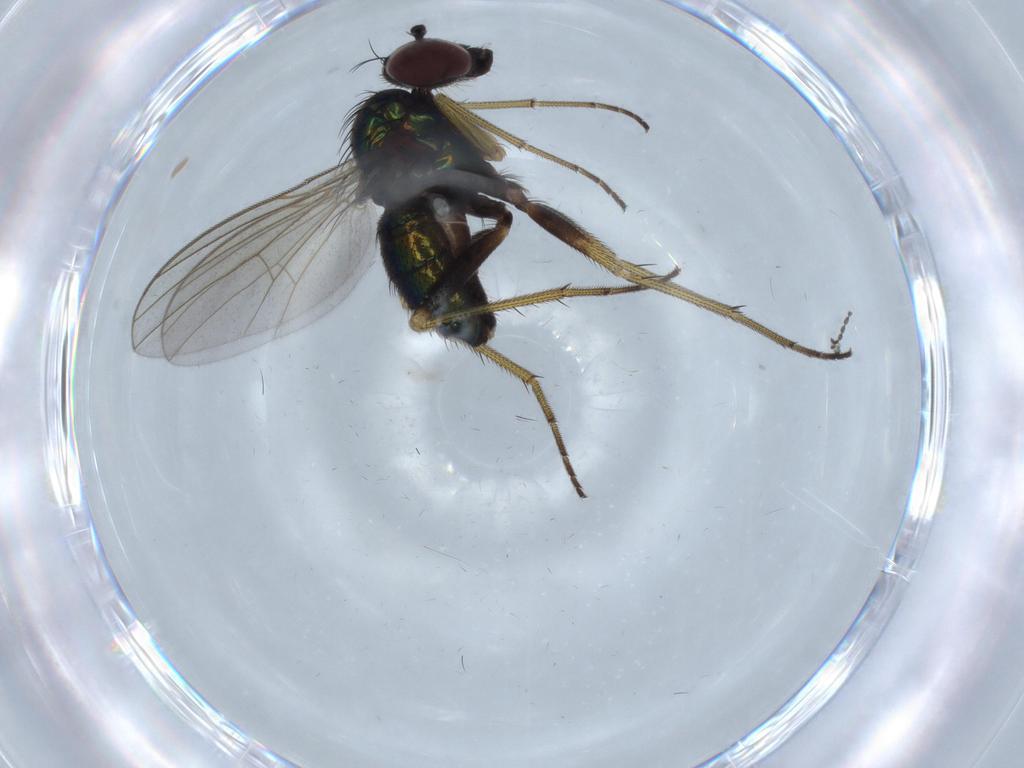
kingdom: Animalia
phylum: Arthropoda
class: Insecta
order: Diptera
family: Dolichopodidae
